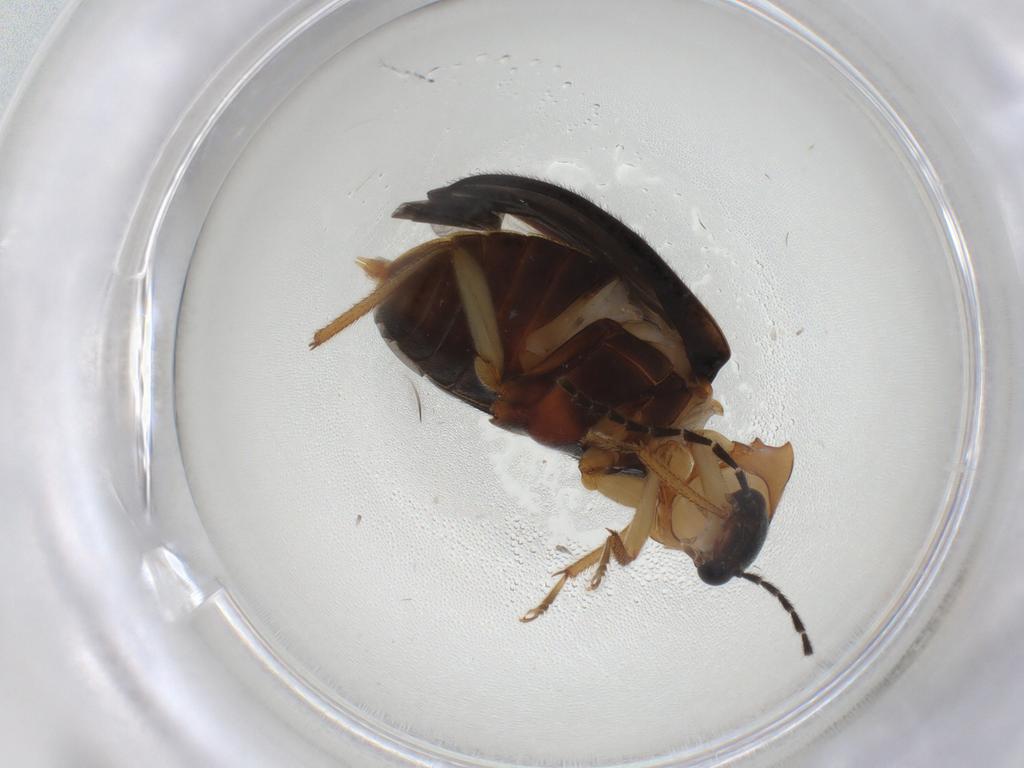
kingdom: Animalia
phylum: Arthropoda
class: Insecta
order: Coleoptera
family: Ptilodactylidae
